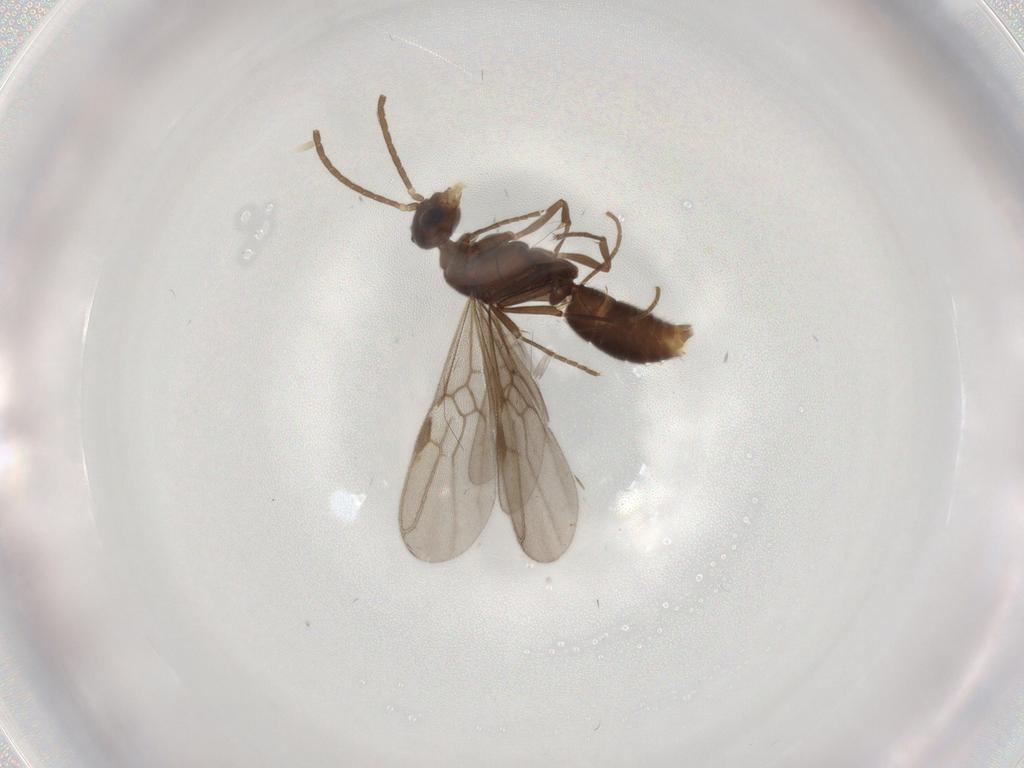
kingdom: Animalia
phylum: Arthropoda
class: Insecta
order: Hymenoptera
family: Formicidae
